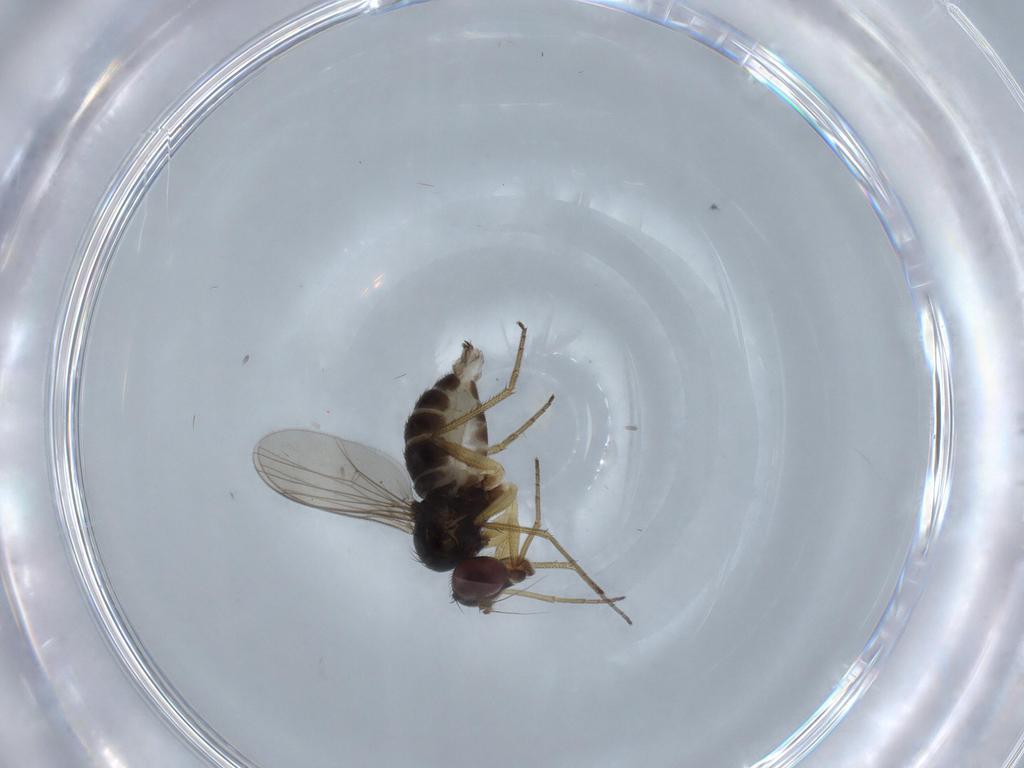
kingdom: Animalia
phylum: Arthropoda
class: Insecta
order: Diptera
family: Dolichopodidae
